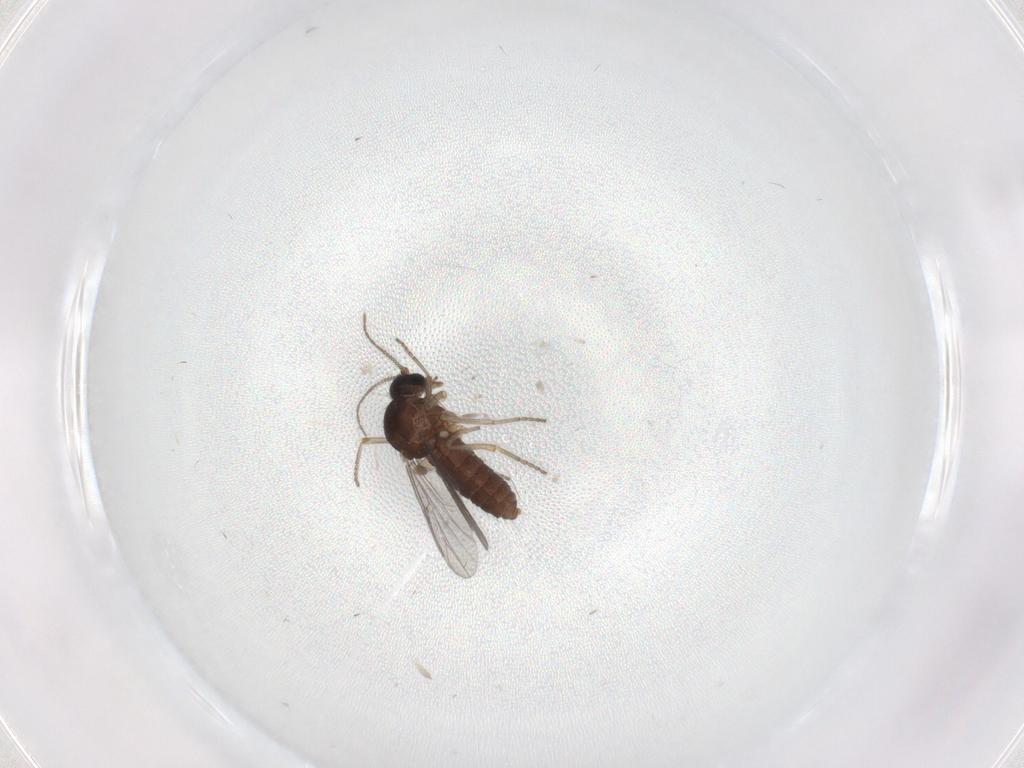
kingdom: Animalia
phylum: Arthropoda
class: Insecta
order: Diptera
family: Ceratopogonidae
